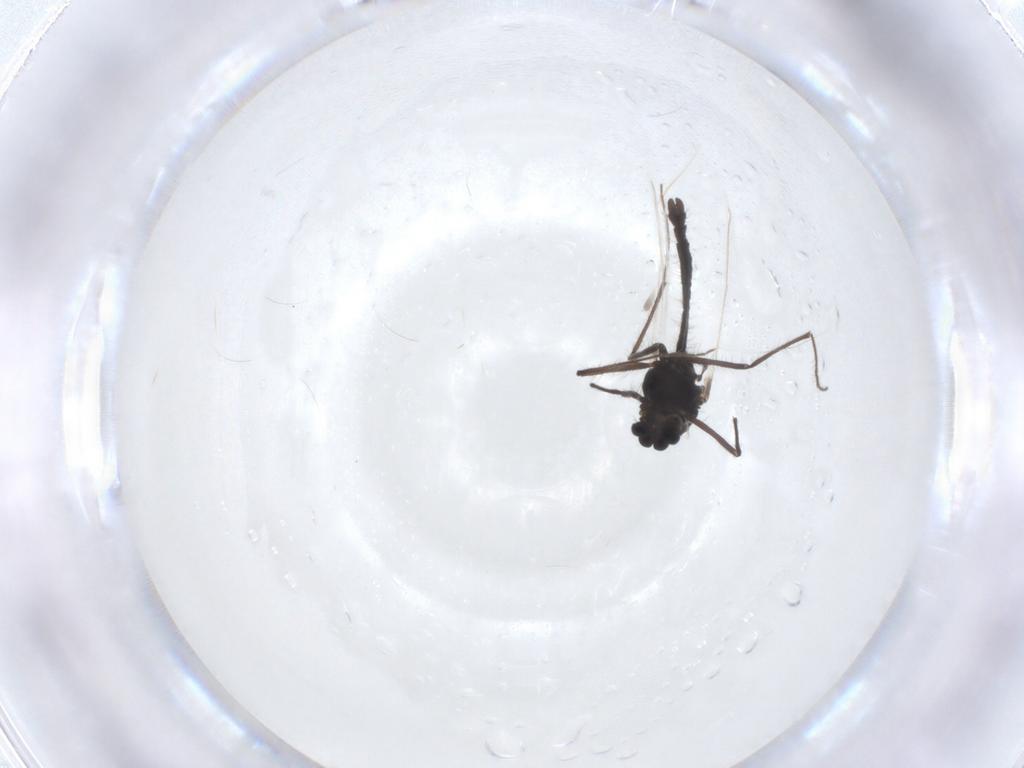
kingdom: Animalia
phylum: Arthropoda
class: Insecta
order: Diptera
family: Chironomidae
